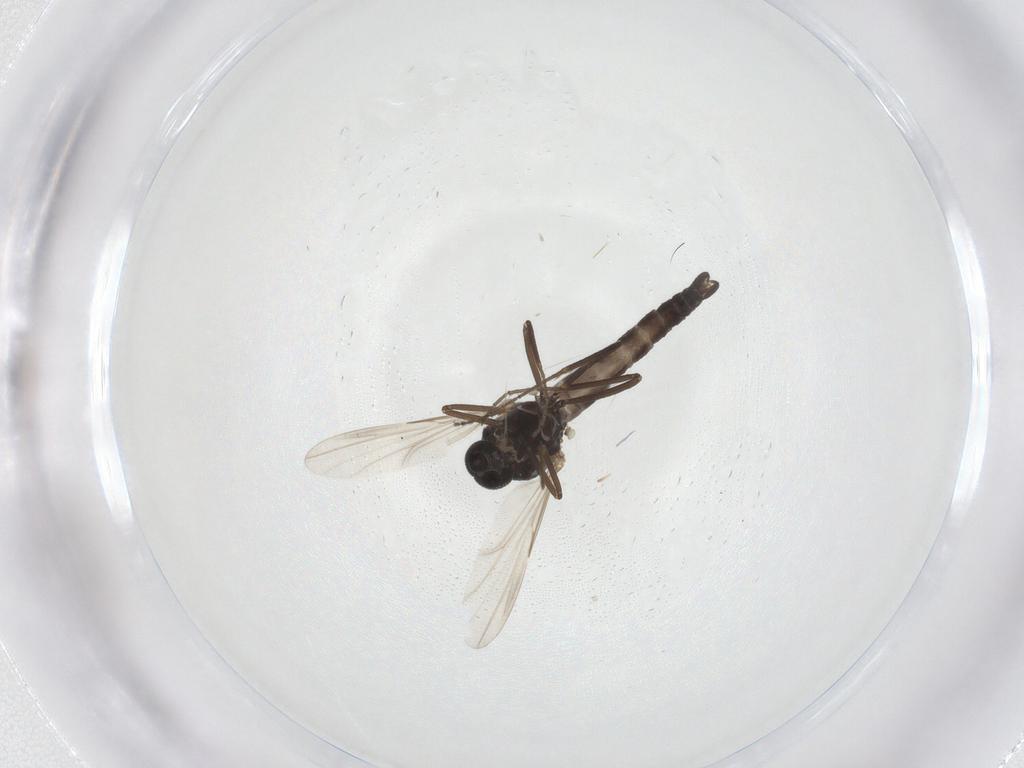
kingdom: Animalia
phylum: Arthropoda
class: Insecta
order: Diptera
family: Ceratopogonidae
